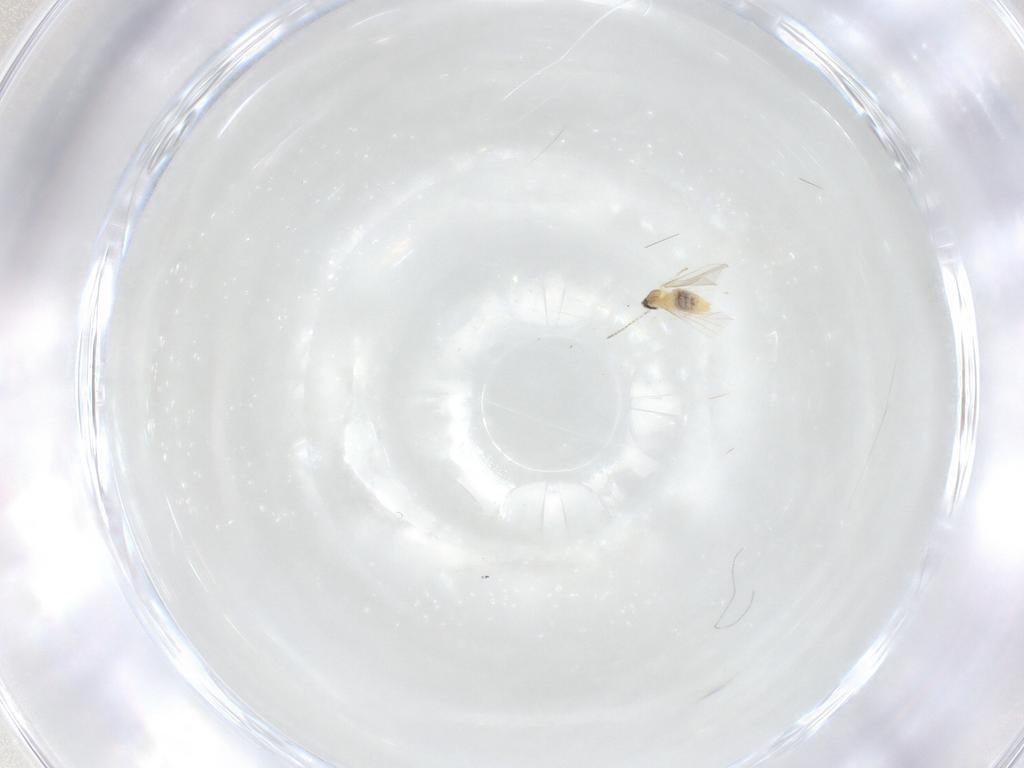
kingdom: Animalia
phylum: Arthropoda
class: Insecta
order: Diptera
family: Cecidomyiidae
